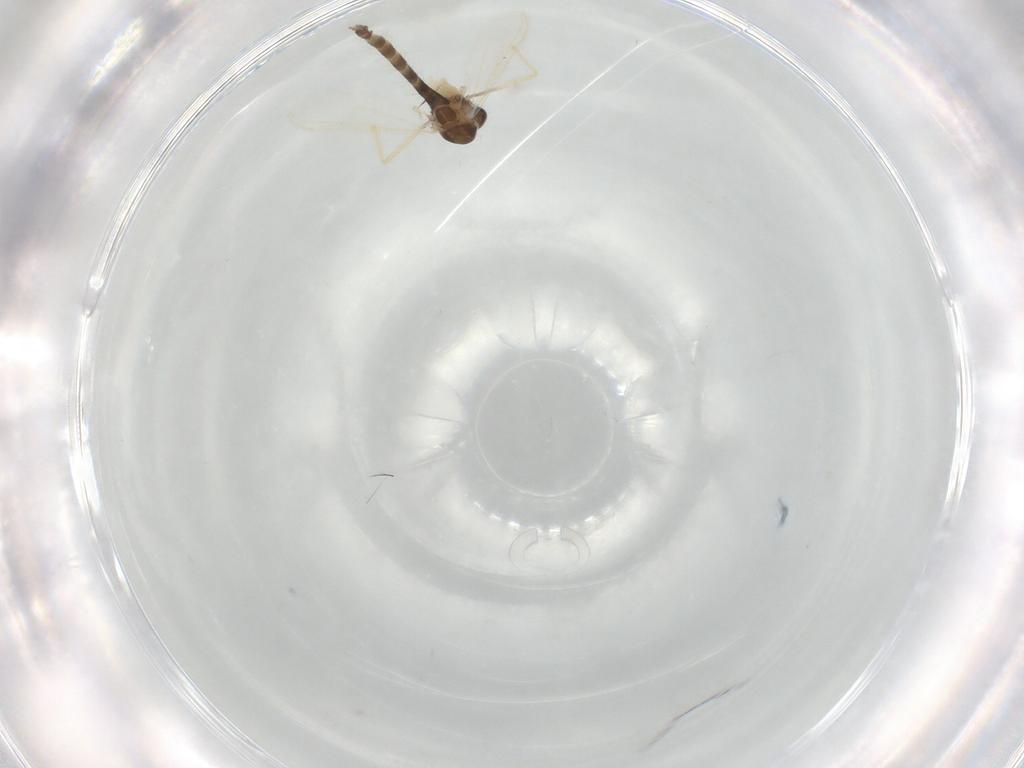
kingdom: Animalia
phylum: Arthropoda
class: Insecta
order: Diptera
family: Chironomidae
